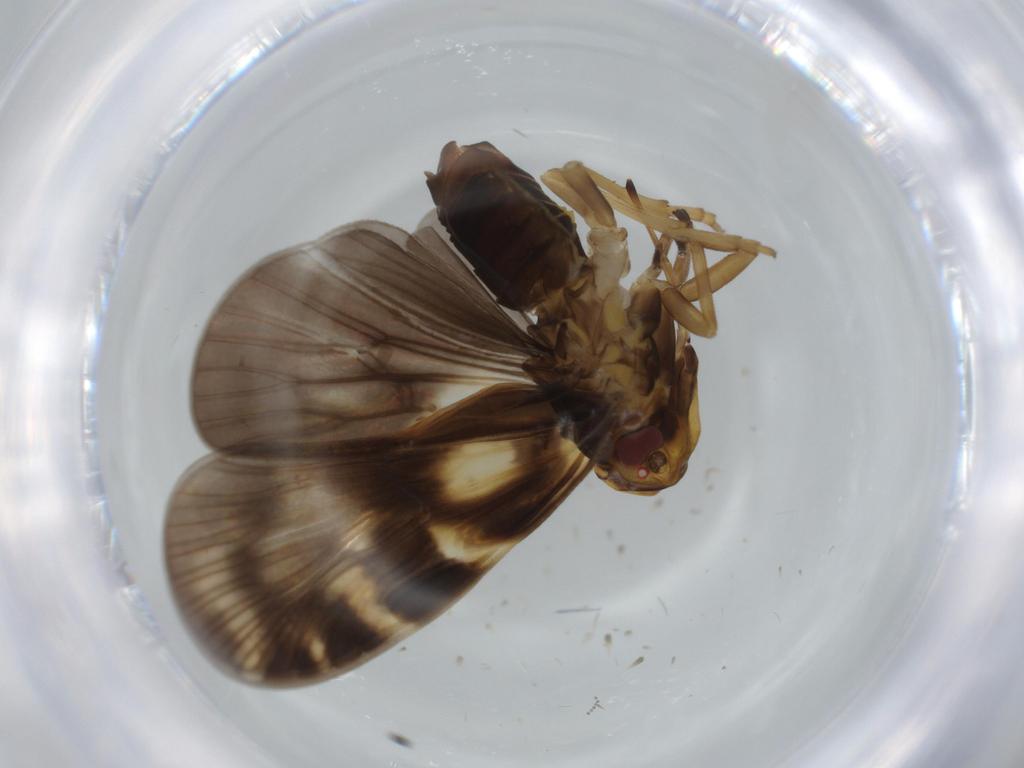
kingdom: Animalia
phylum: Arthropoda
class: Insecta
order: Hemiptera
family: Cixiidae
